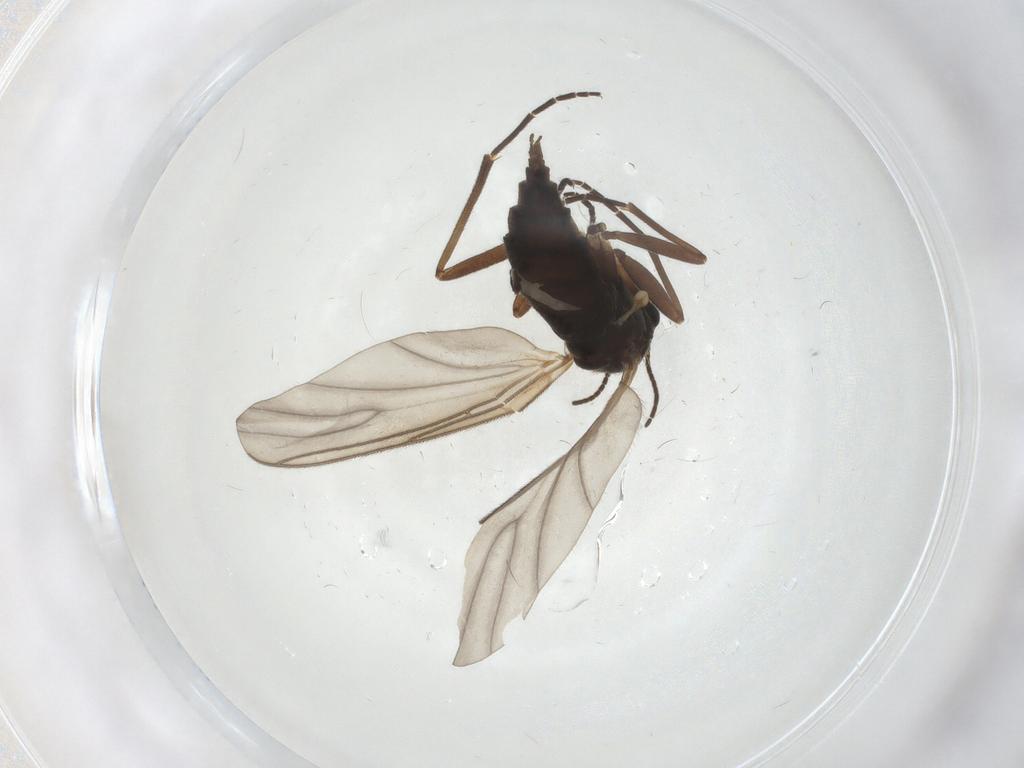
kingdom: Animalia
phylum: Arthropoda
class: Insecta
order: Diptera
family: Sciaridae
